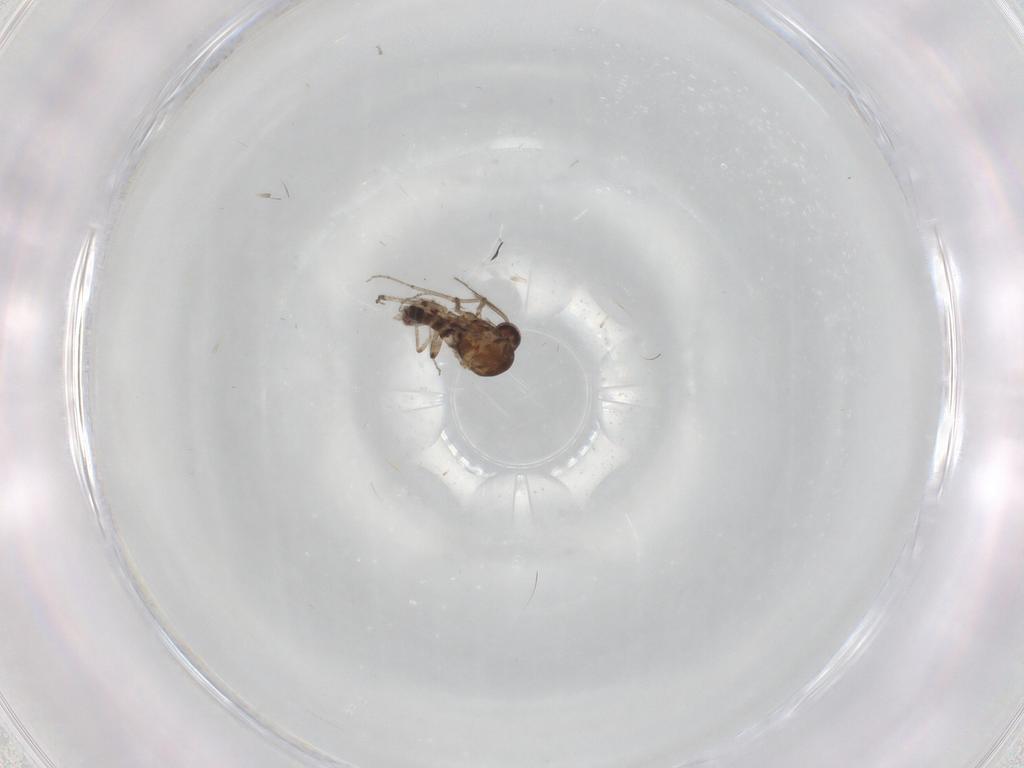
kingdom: Animalia
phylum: Arthropoda
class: Insecta
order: Diptera
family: Ceratopogonidae
